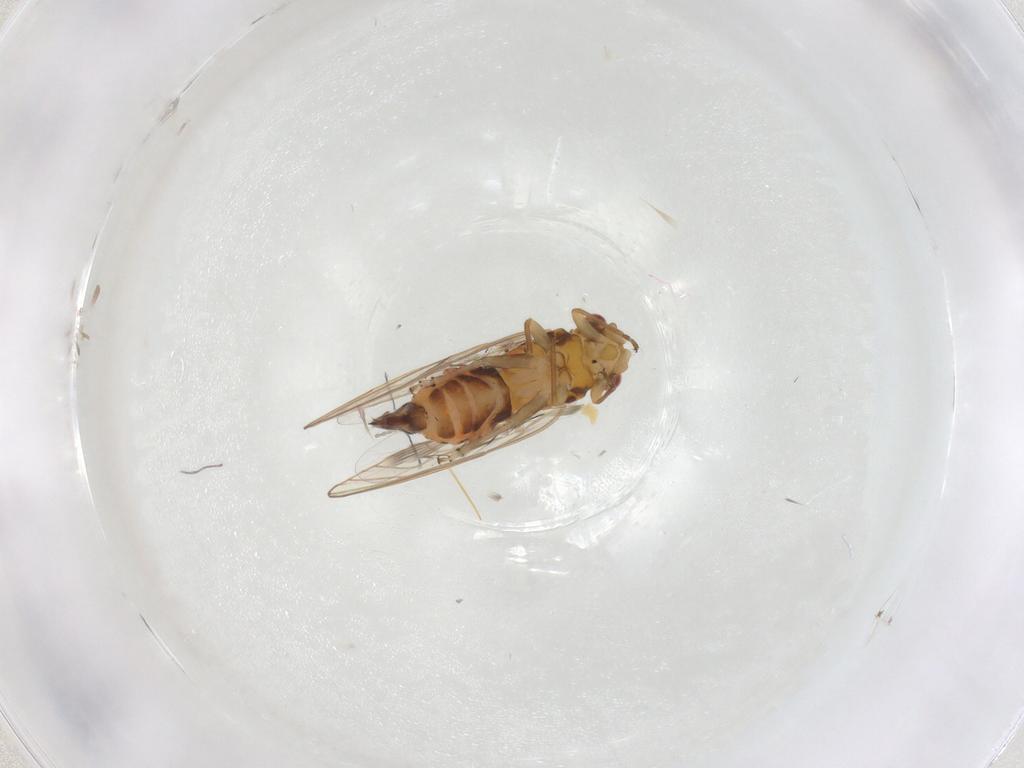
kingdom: Animalia
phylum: Arthropoda
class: Insecta
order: Hemiptera
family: Psyllidae
